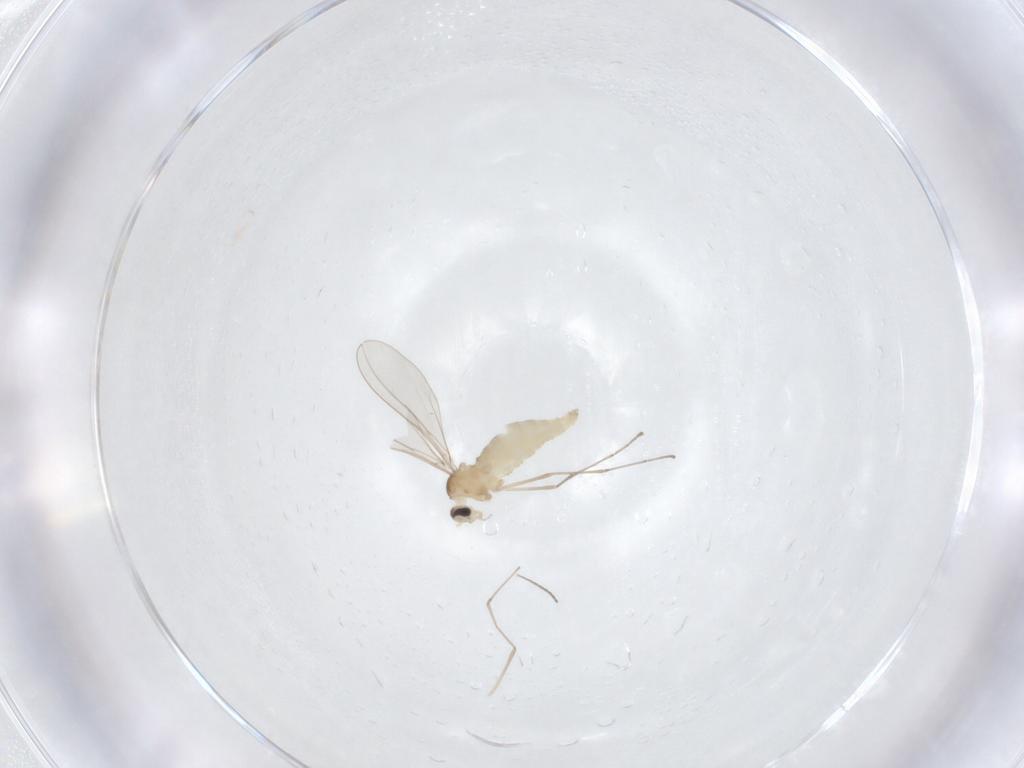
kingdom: Animalia
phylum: Arthropoda
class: Insecta
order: Diptera
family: Cecidomyiidae
